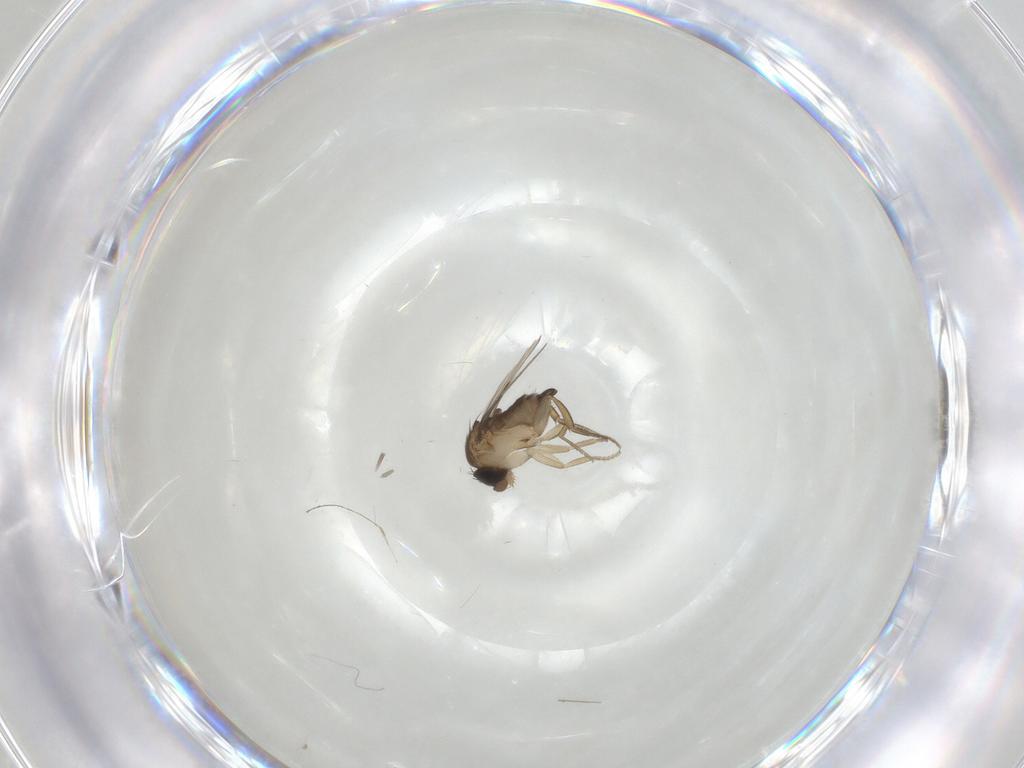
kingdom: Animalia
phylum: Arthropoda
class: Insecta
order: Diptera
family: Chironomidae
